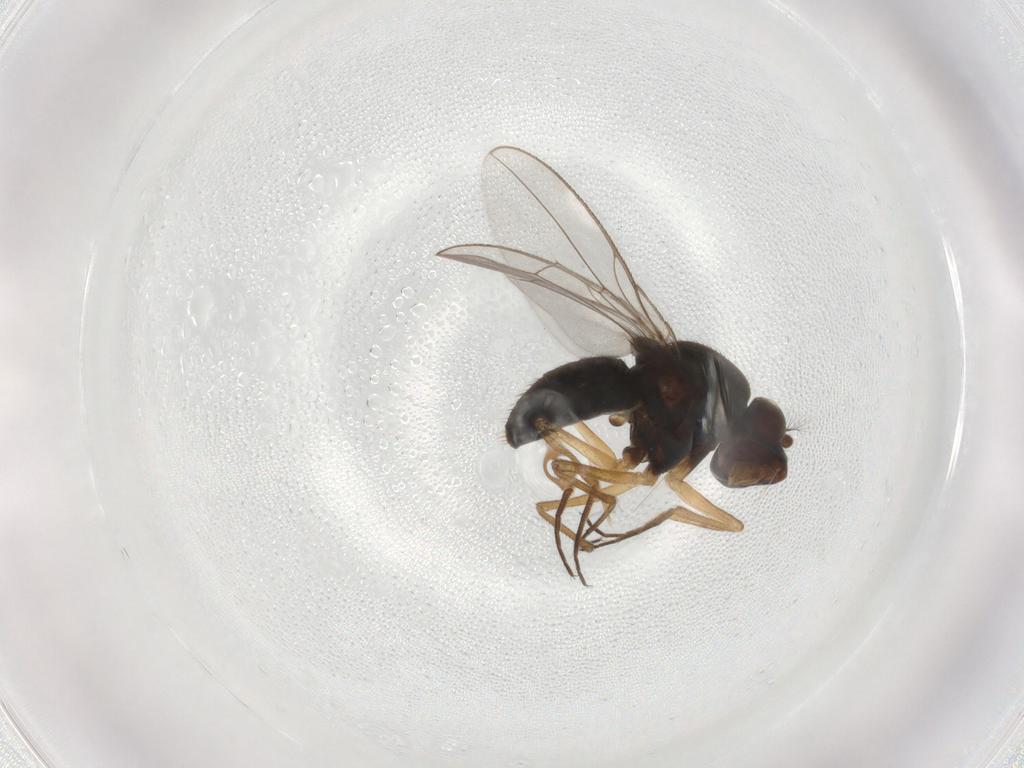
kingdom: Animalia
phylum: Arthropoda
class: Insecta
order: Diptera
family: Ephydridae
